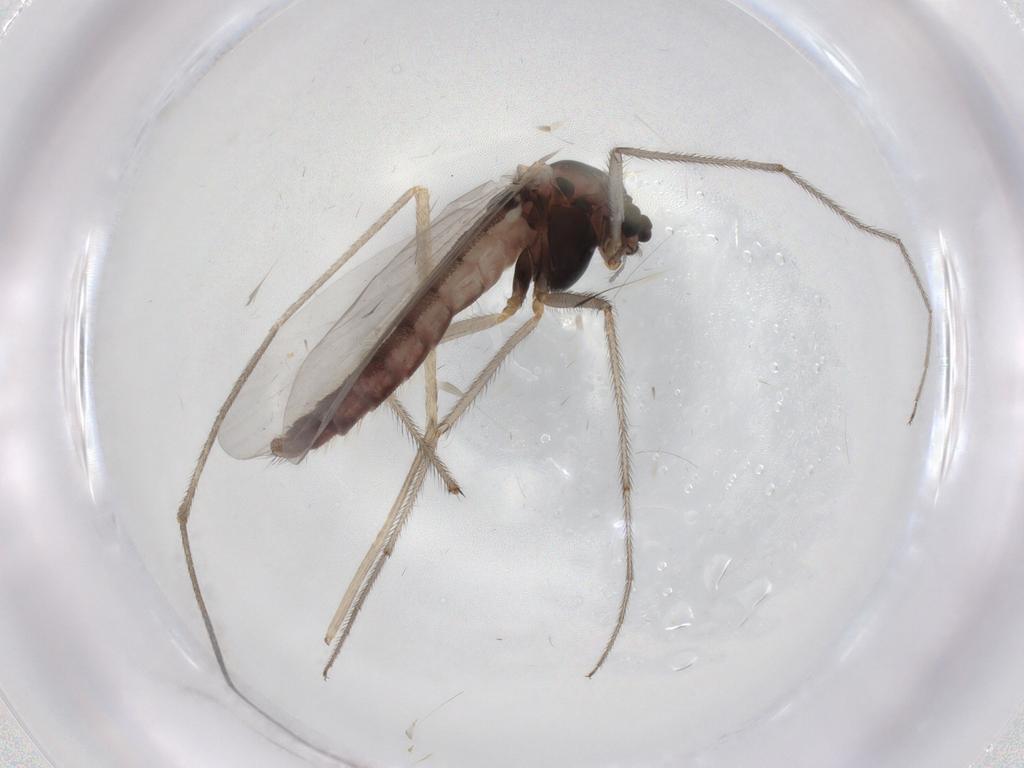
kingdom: Animalia
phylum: Arthropoda
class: Insecta
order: Diptera
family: Chironomidae
